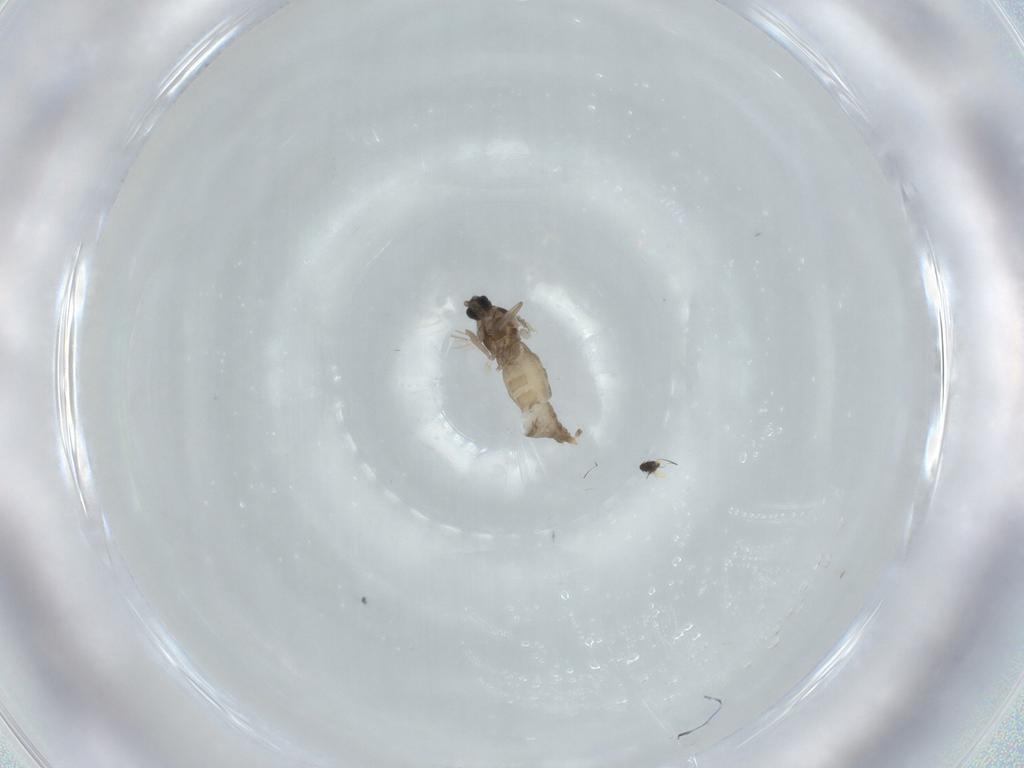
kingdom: Animalia
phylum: Arthropoda
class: Insecta
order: Diptera
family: Cecidomyiidae
